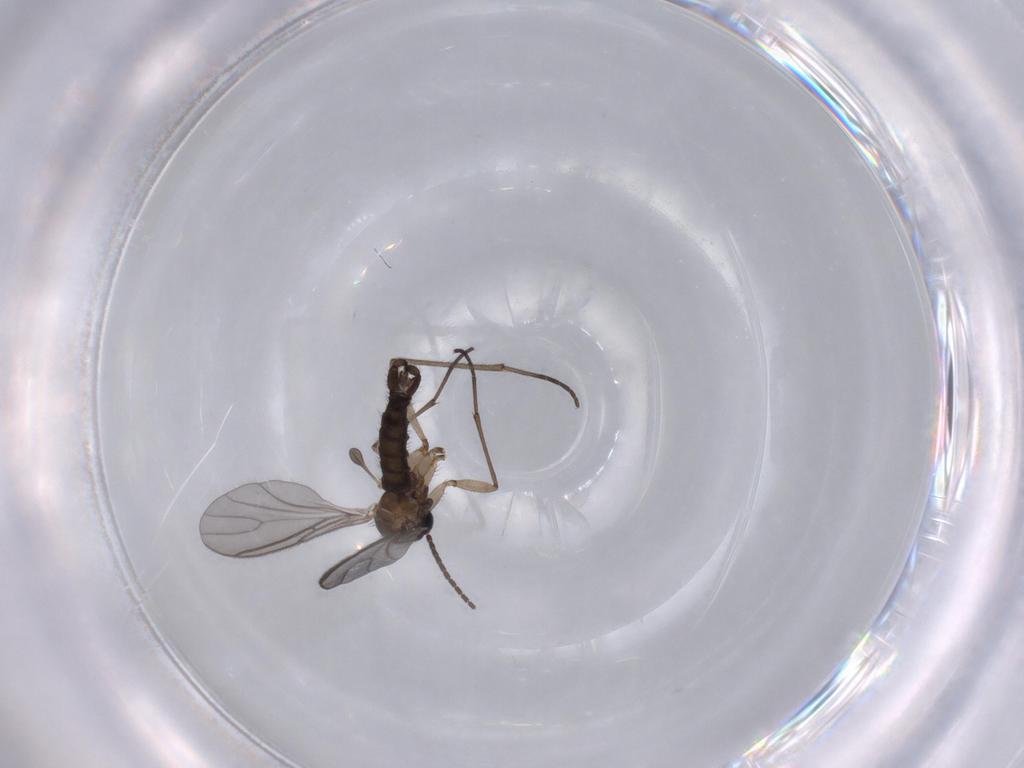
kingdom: Animalia
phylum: Arthropoda
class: Insecta
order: Diptera
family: Sciaridae
